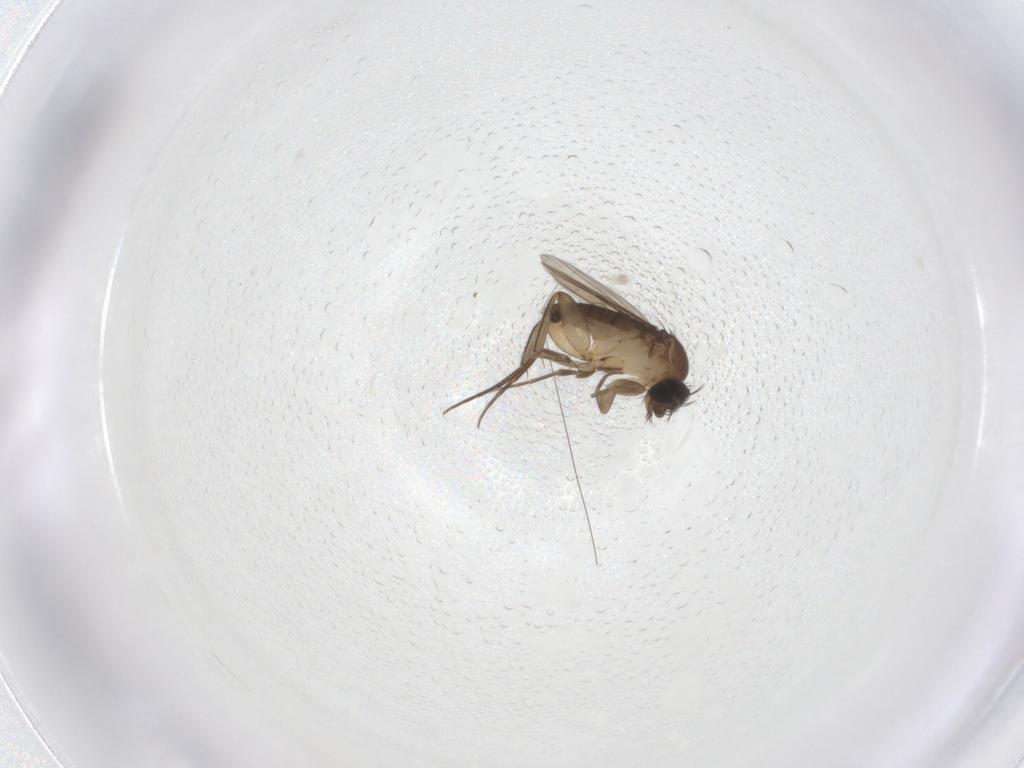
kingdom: Animalia
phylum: Arthropoda
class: Insecta
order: Diptera
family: Phoridae
